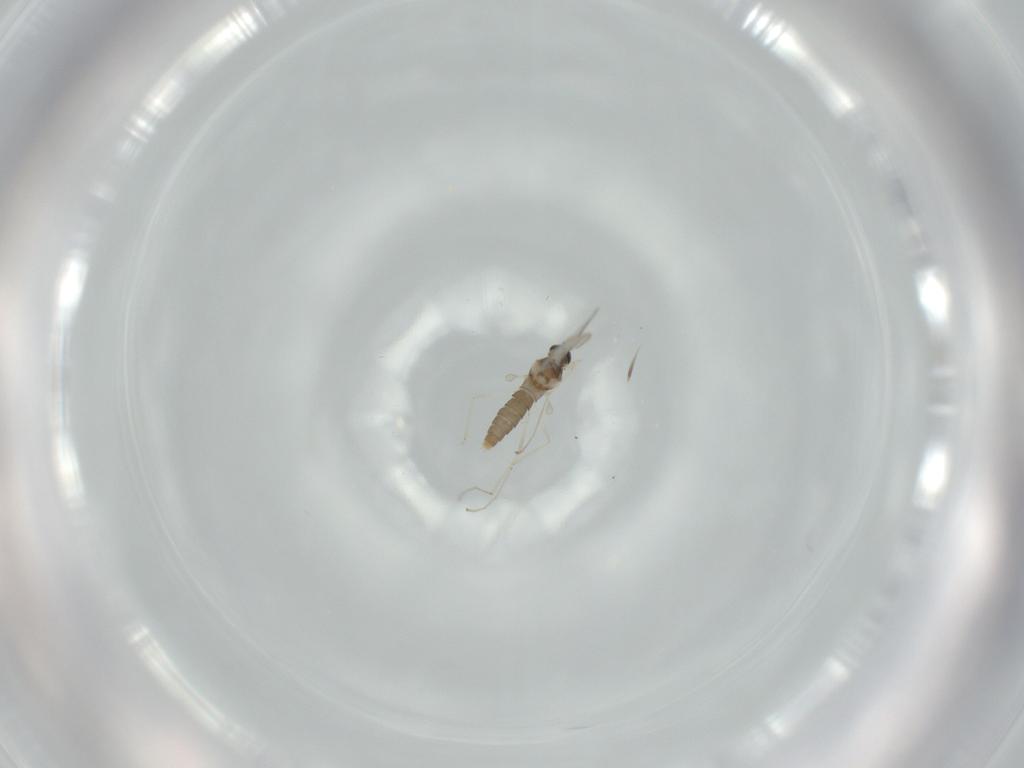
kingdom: Animalia
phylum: Arthropoda
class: Insecta
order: Diptera
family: Cecidomyiidae
